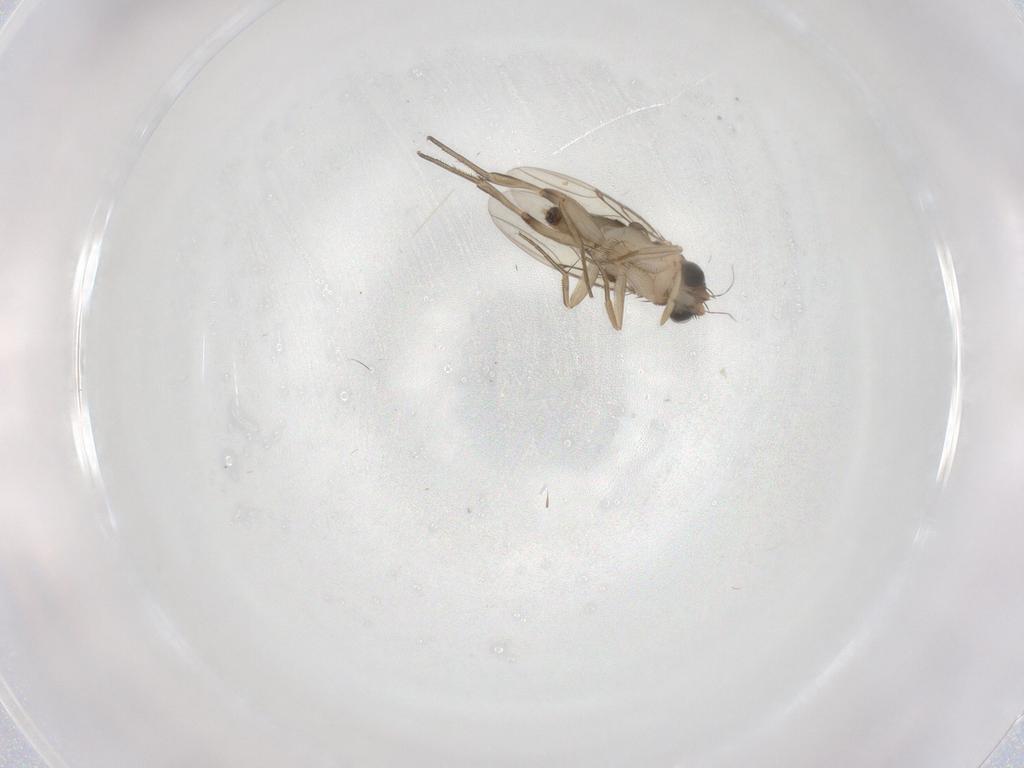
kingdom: Animalia
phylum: Arthropoda
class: Insecta
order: Diptera
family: Phoridae
